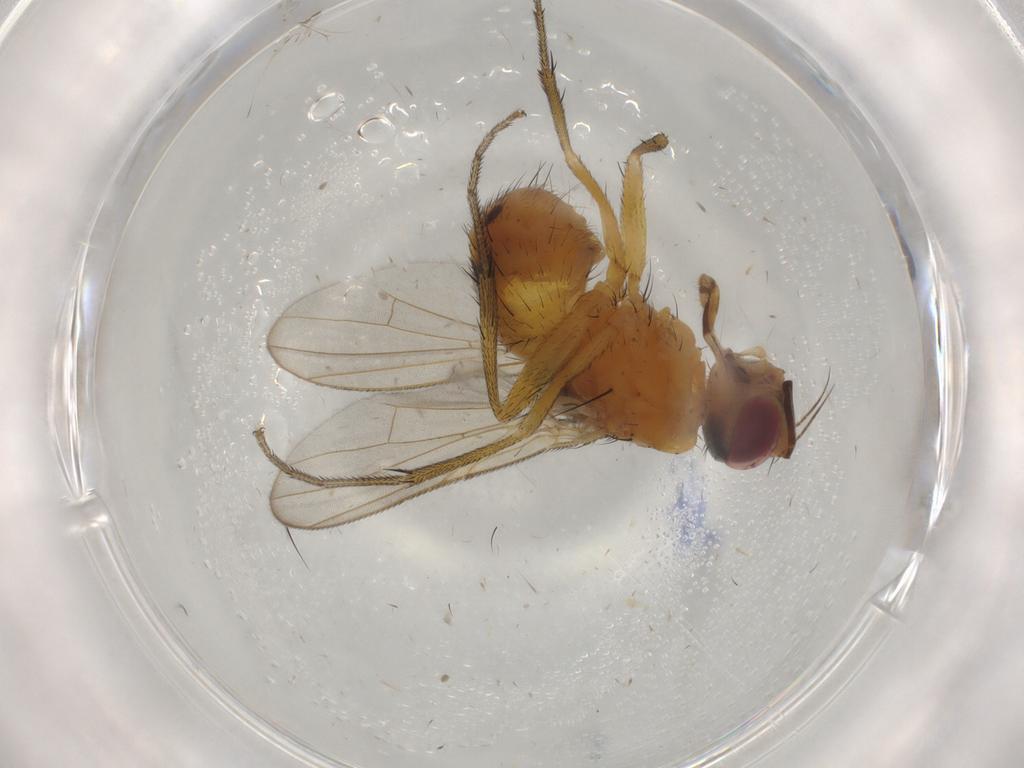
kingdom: Animalia
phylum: Arthropoda
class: Insecta
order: Diptera
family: Muscidae
